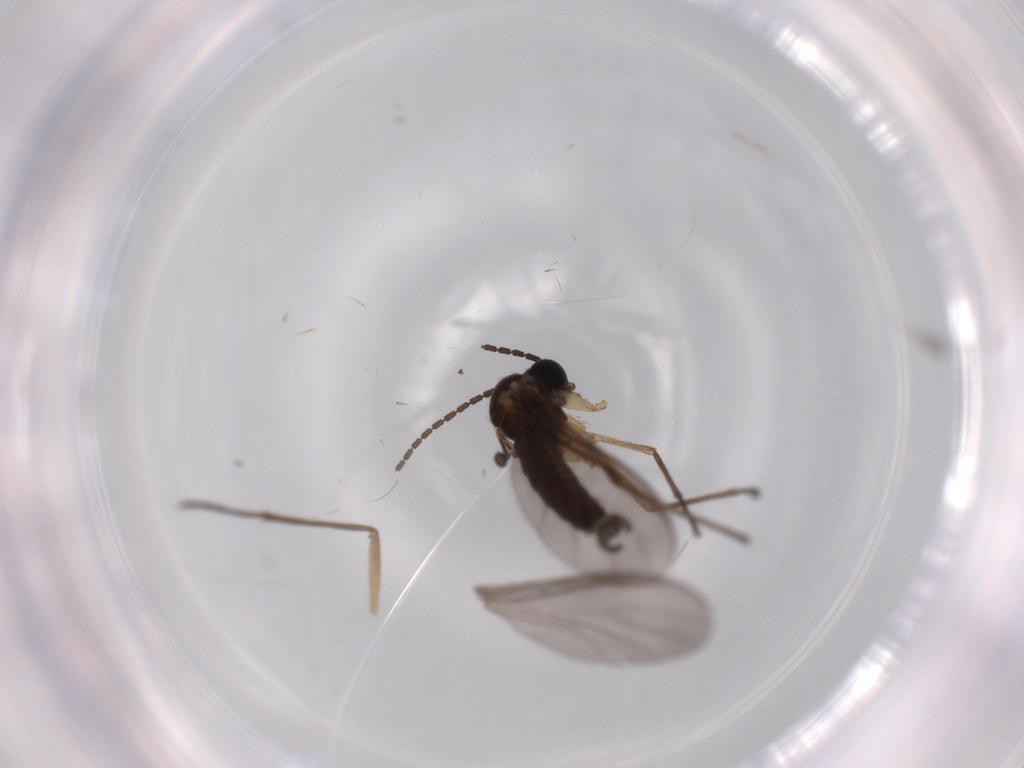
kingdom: Animalia
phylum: Arthropoda
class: Insecta
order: Diptera
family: Sciaridae
